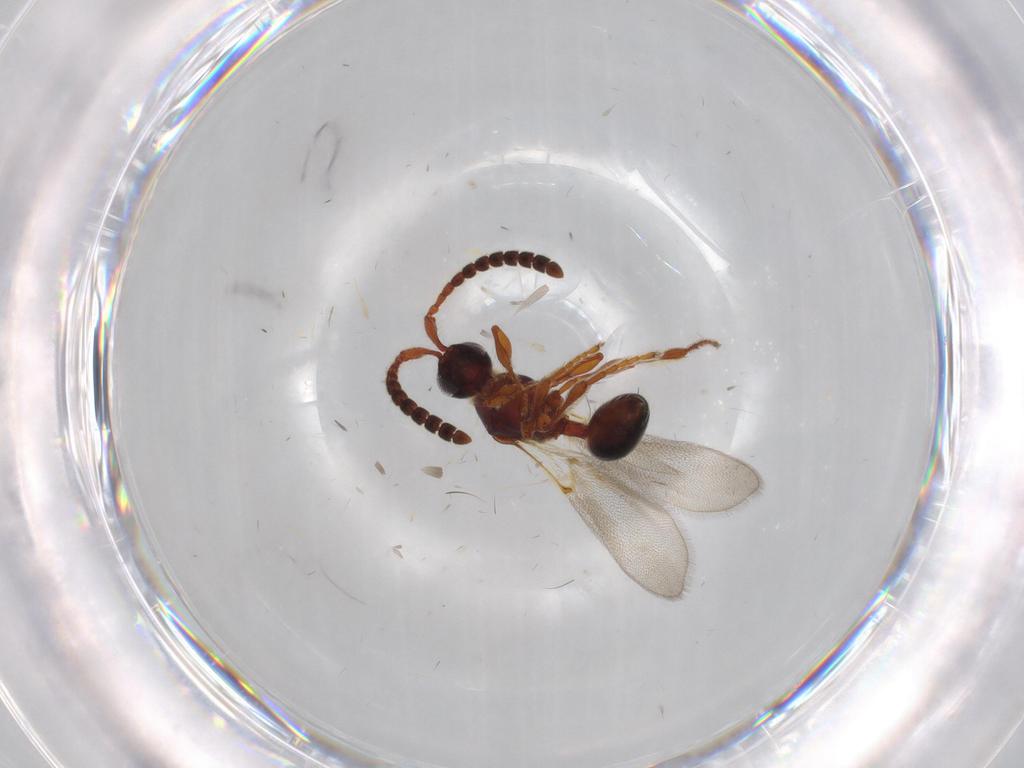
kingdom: Animalia
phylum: Arthropoda
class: Insecta
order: Hymenoptera
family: Diapriidae
